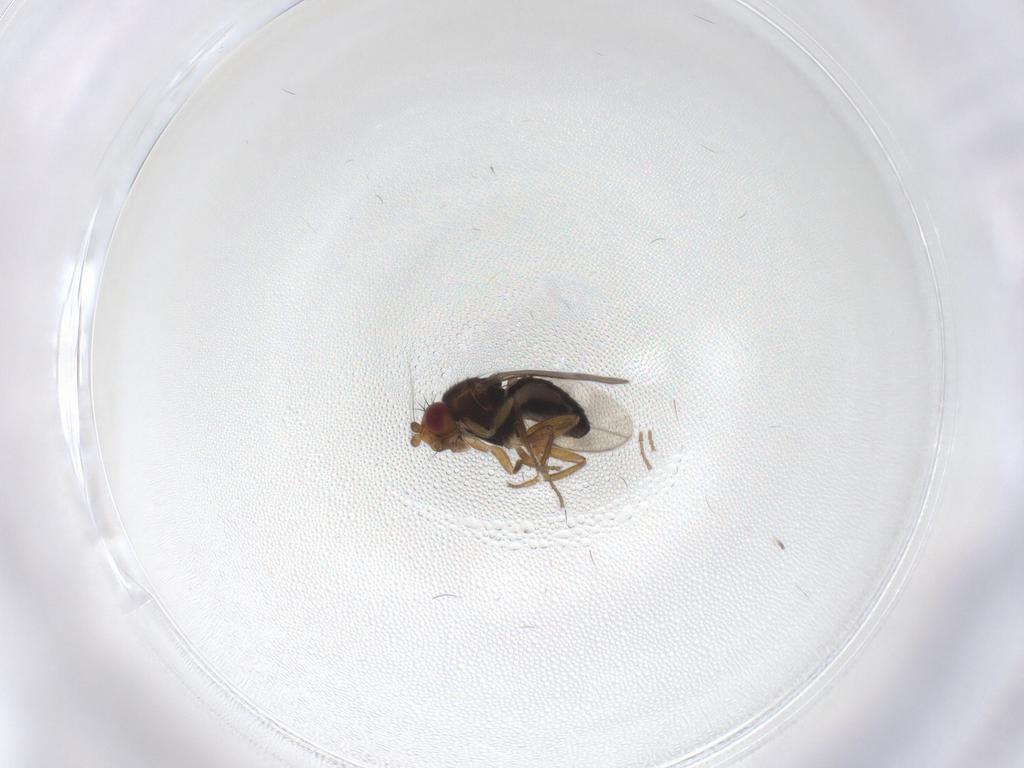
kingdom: Animalia
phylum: Arthropoda
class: Insecta
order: Diptera
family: Sphaeroceridae
